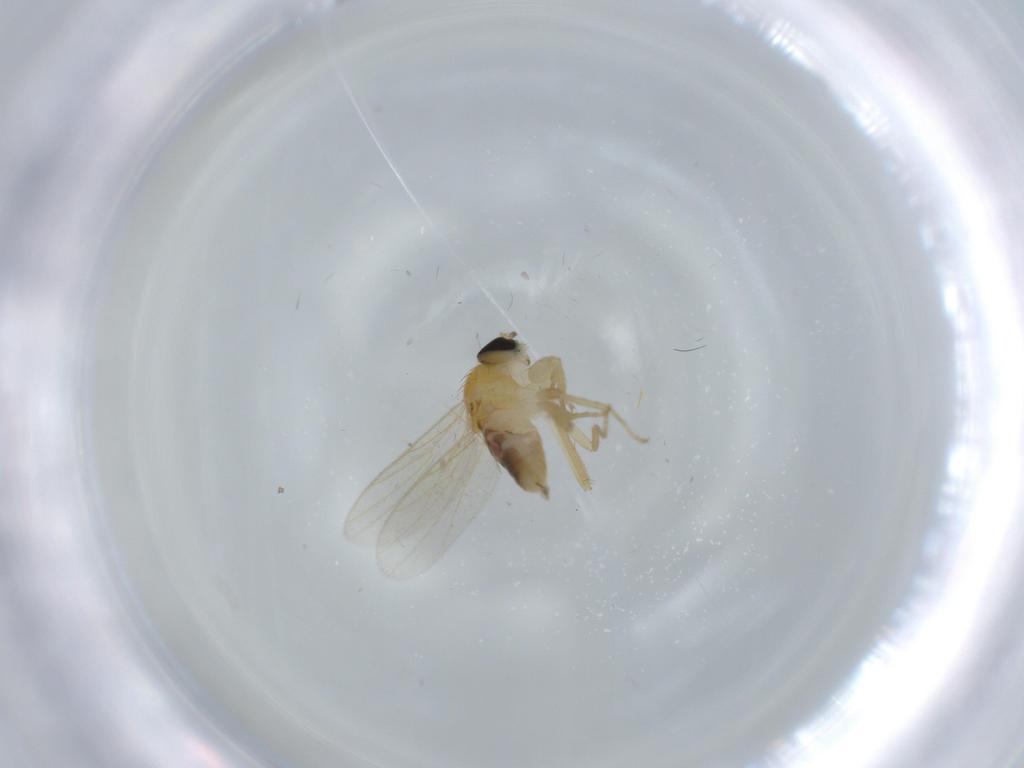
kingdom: Animalia
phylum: Arthropoda
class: Insecta
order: Diptera
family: Hybotidae
